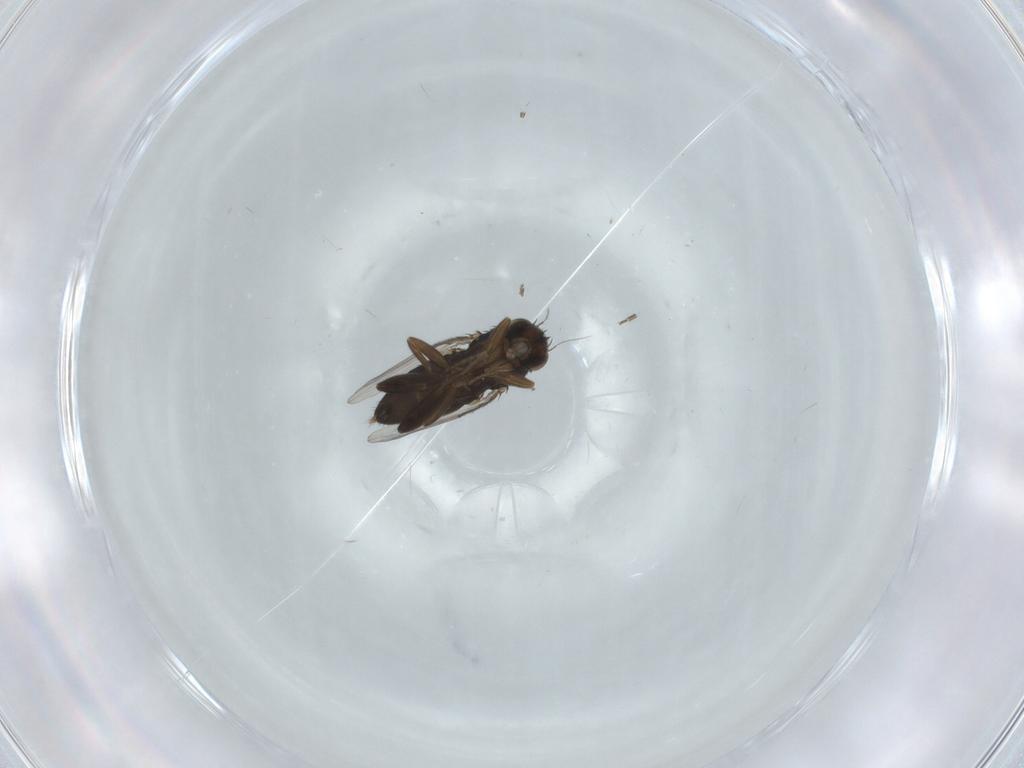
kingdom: Animalia
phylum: Arthropoda
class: Insecta
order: Diptera
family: Phoridae
